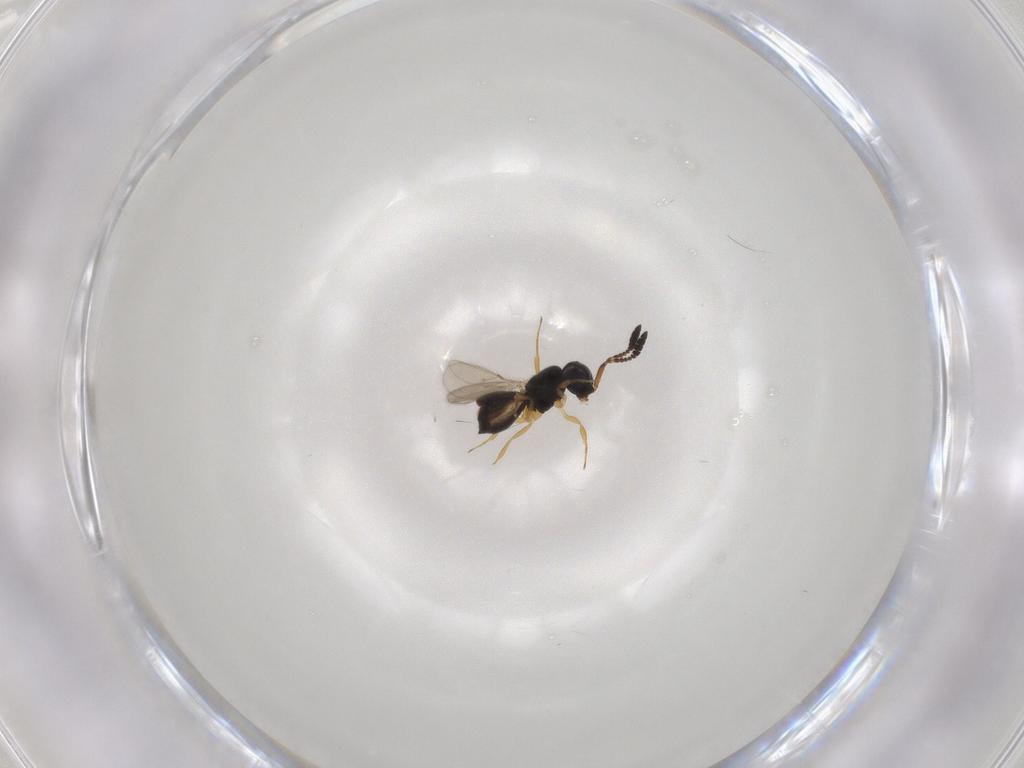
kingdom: Animalia
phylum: Arthropoda
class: Insecta
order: Hymenoptera
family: Scelionidae
